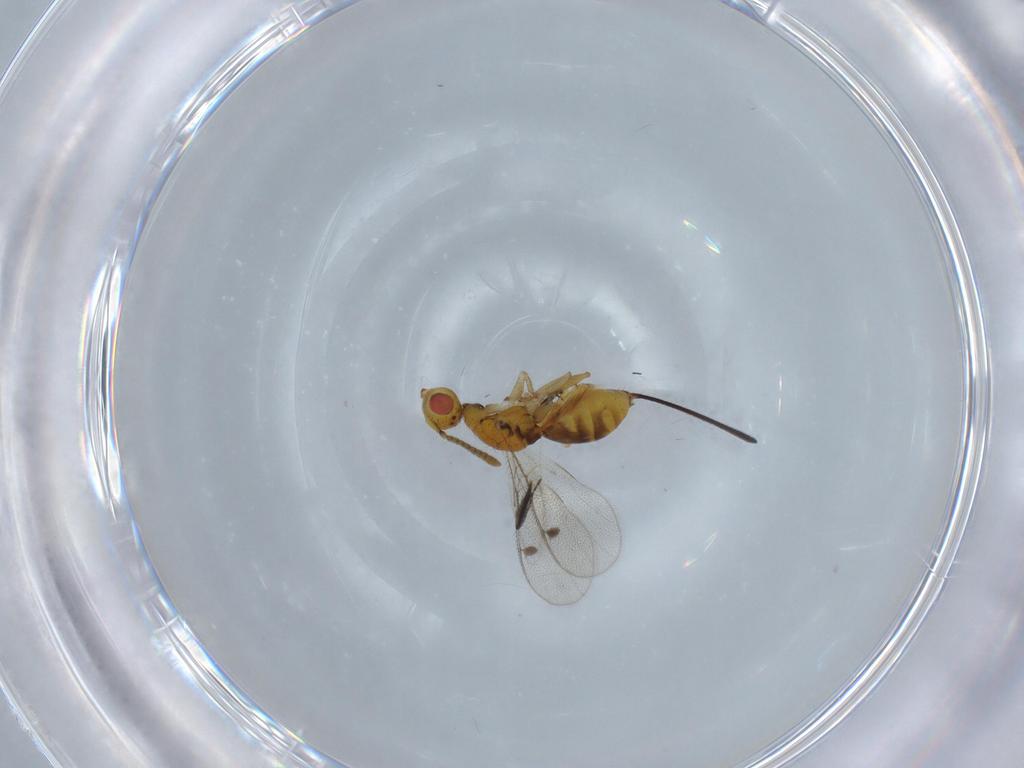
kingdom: Animalia
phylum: Arthropoda
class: Insecta
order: Hymenoptera
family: Megastigmidae
